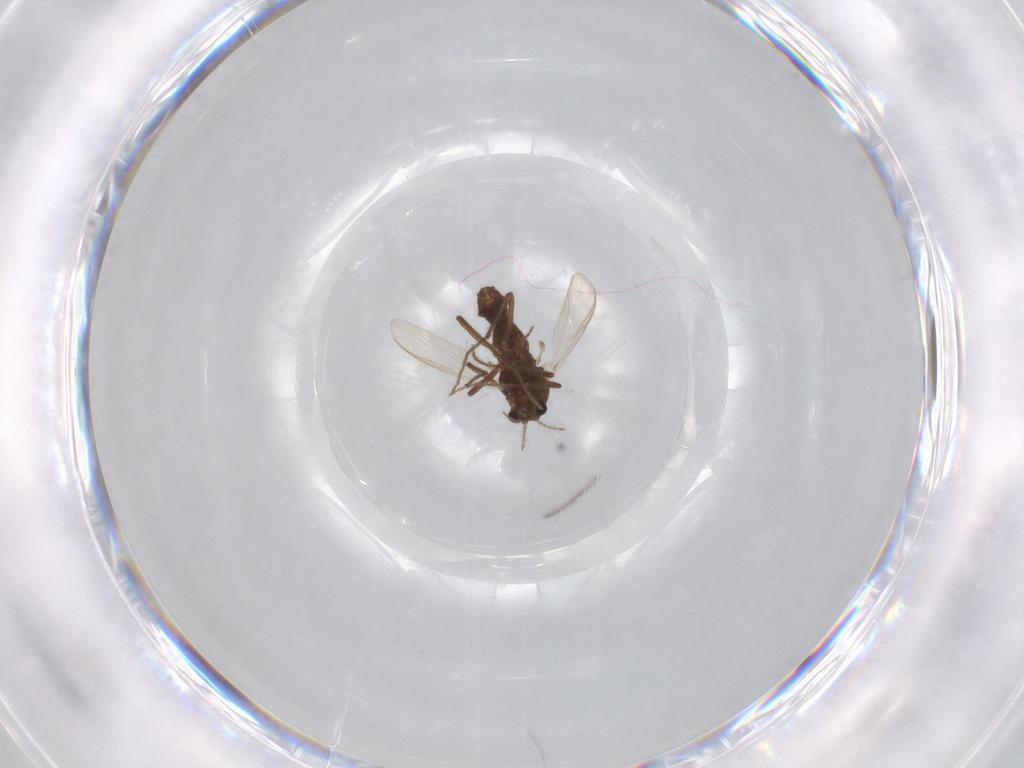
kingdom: Animalia
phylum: Arthropoda
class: Insecta
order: Diptera
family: Chironomidae
